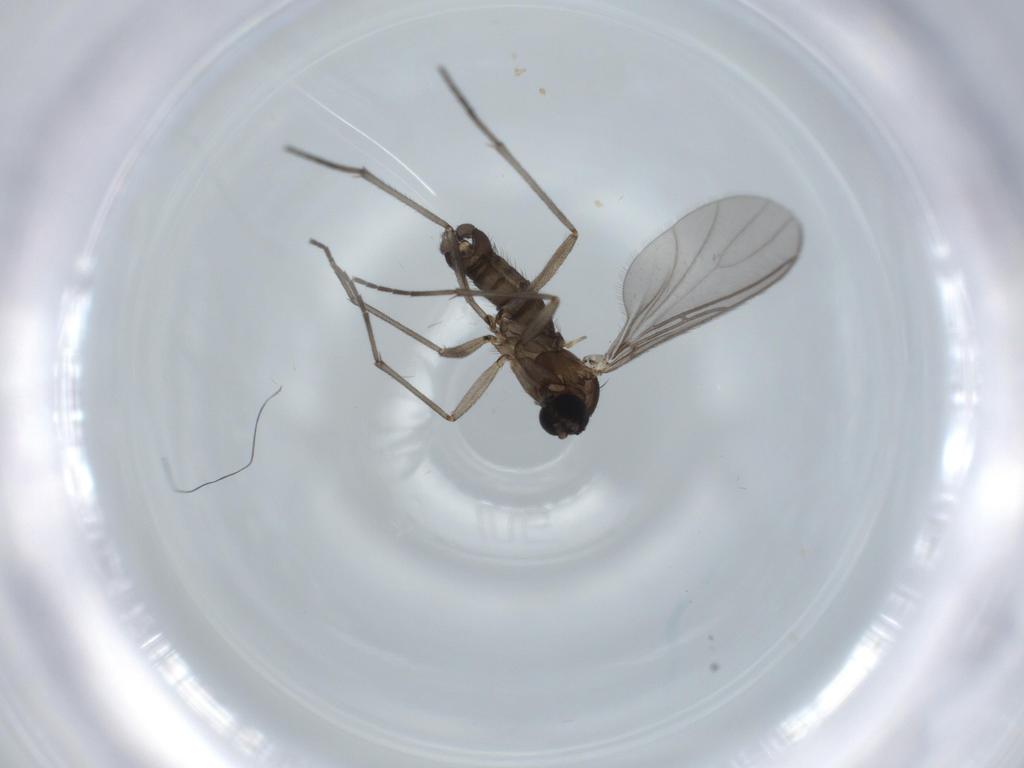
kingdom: Animalia
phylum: Arthropoda
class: Insecta
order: Diptera
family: Sciaridae
